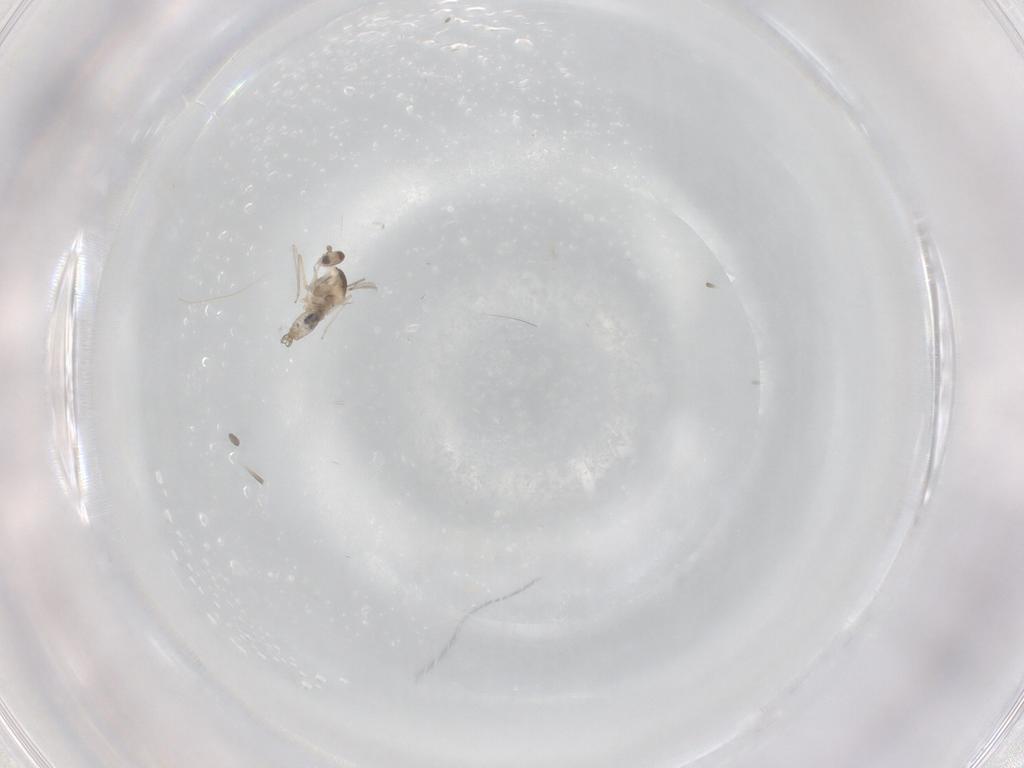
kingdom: Animalia
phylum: Arthropoda
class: Insecta
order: Diptera
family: Cecidomyiidae
